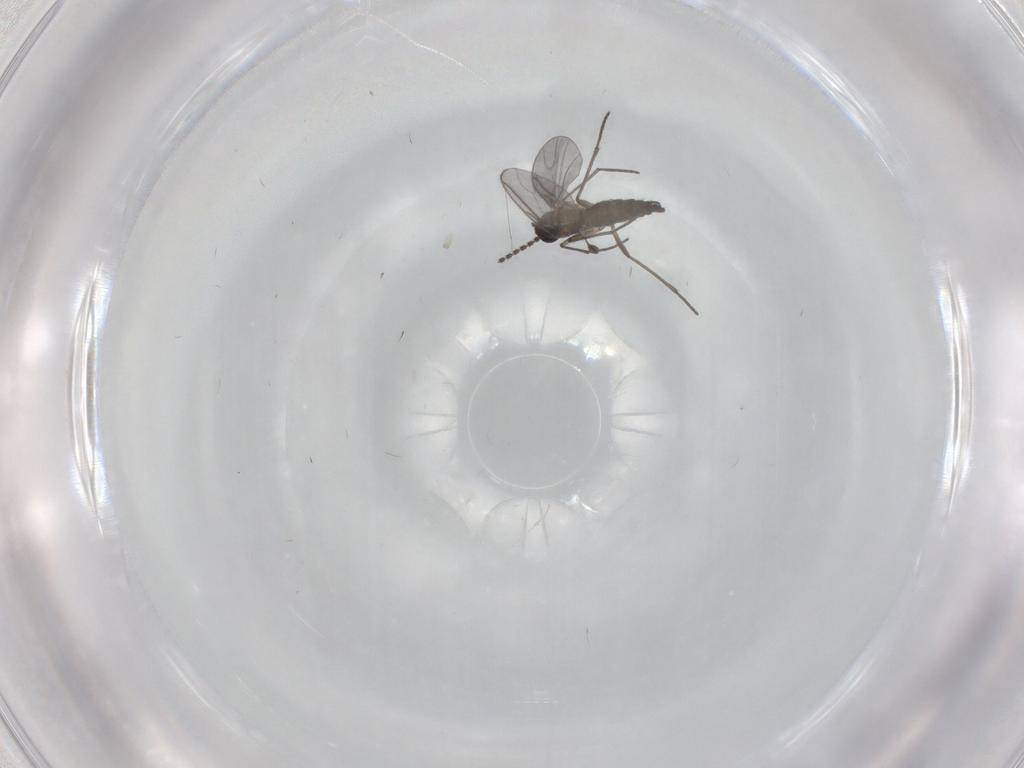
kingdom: Animalia
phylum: Arthropoda
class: Insecta
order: Diptera
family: Sciaridae
